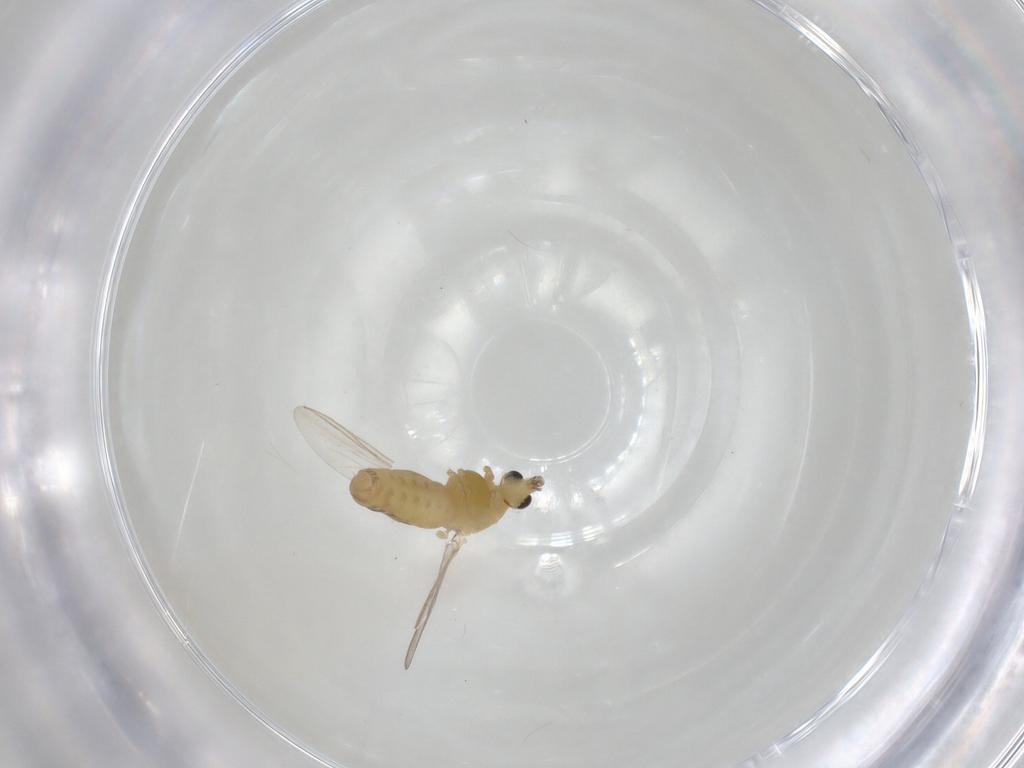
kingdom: Animalia
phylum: Arthropoda
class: Insecta
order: Diptera
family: Chironomidae
